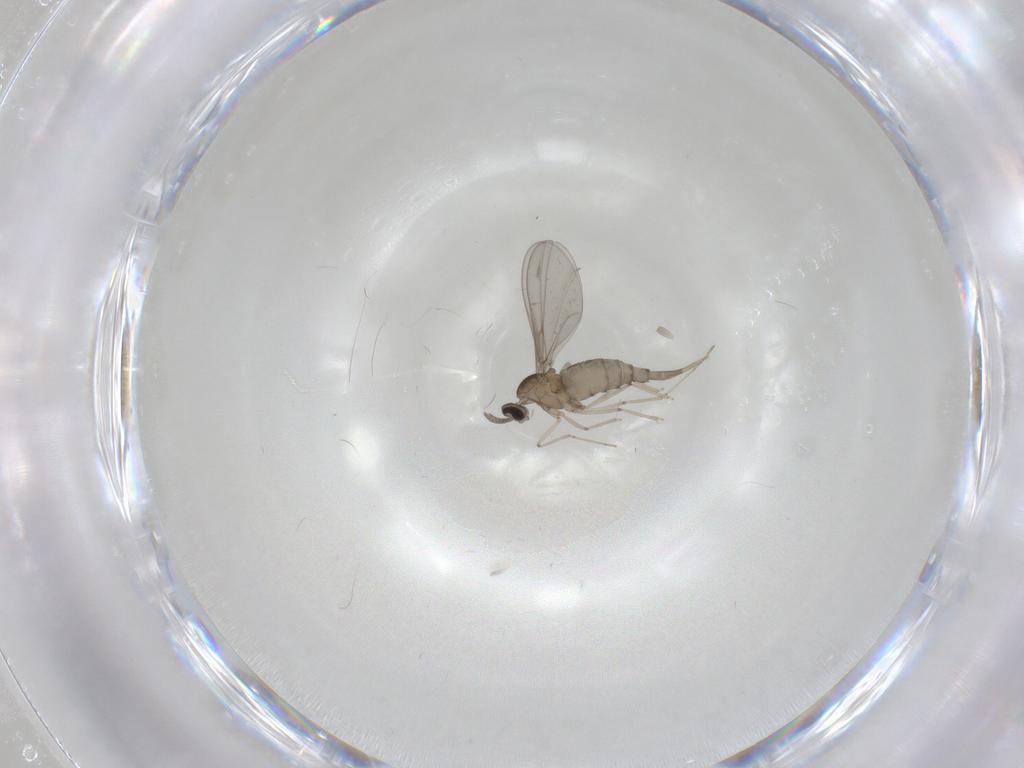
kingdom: Animalia
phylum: Arthropoda
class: Insecta
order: Diptera
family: Cecidomyiidae
